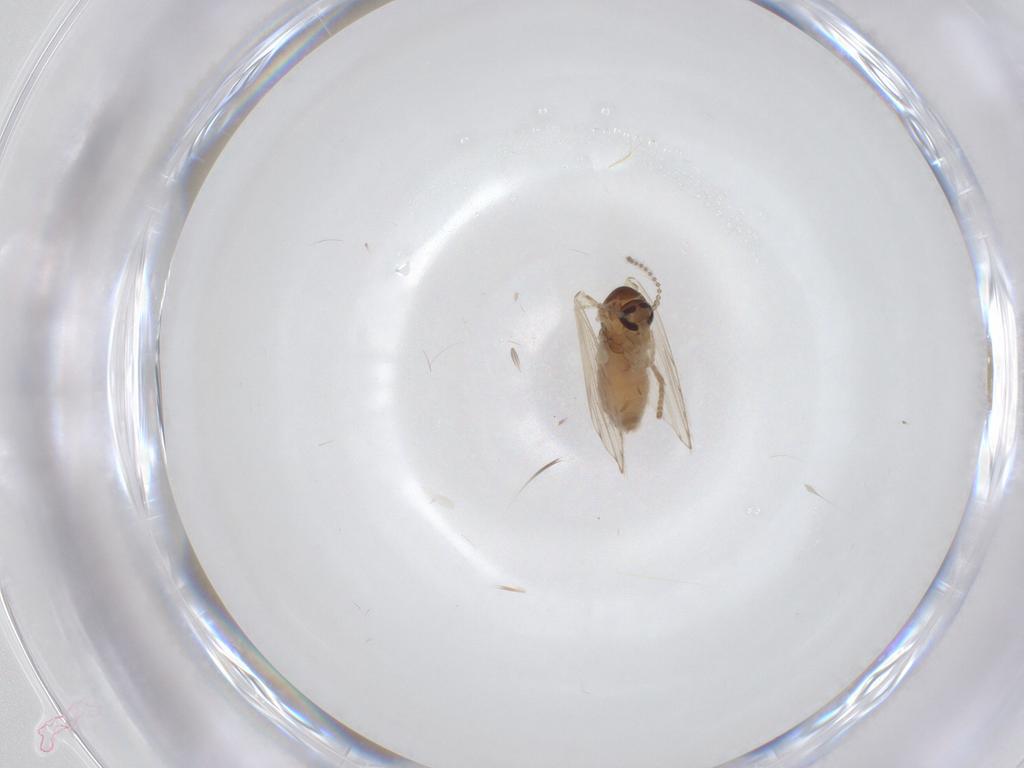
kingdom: Animalia
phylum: Arthropoda
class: Insecta
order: Diptera
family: Psychodidae
